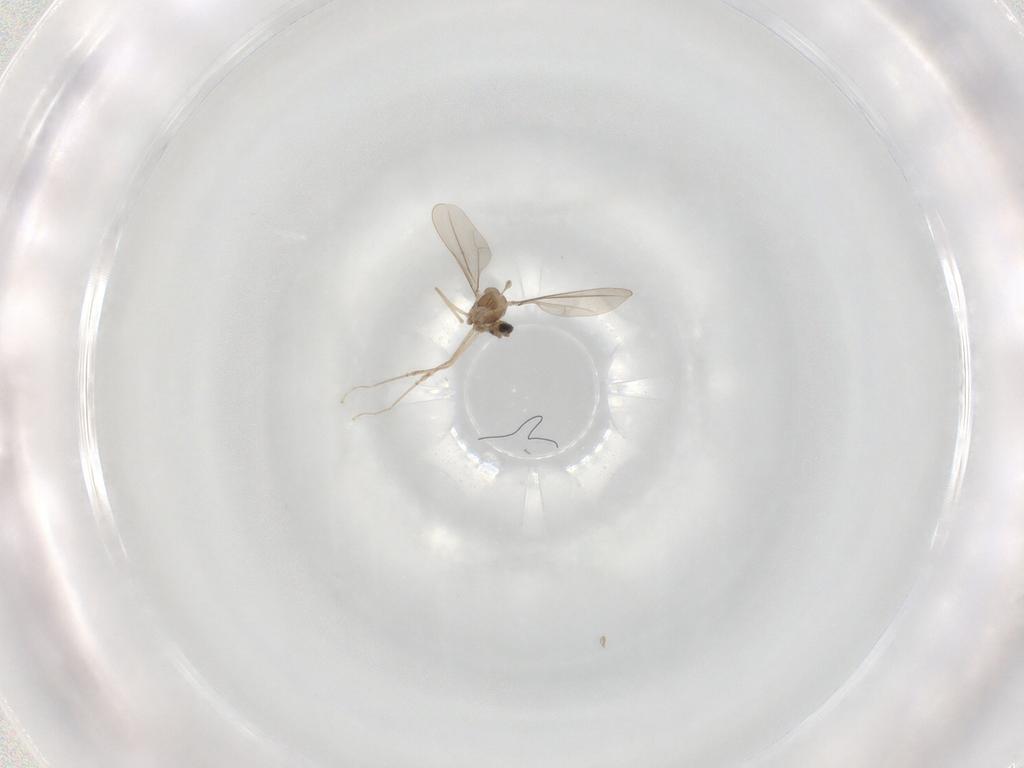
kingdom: Animalia
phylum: Arthropoda
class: Insecta
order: Diptera
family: Cecidomyiidae
